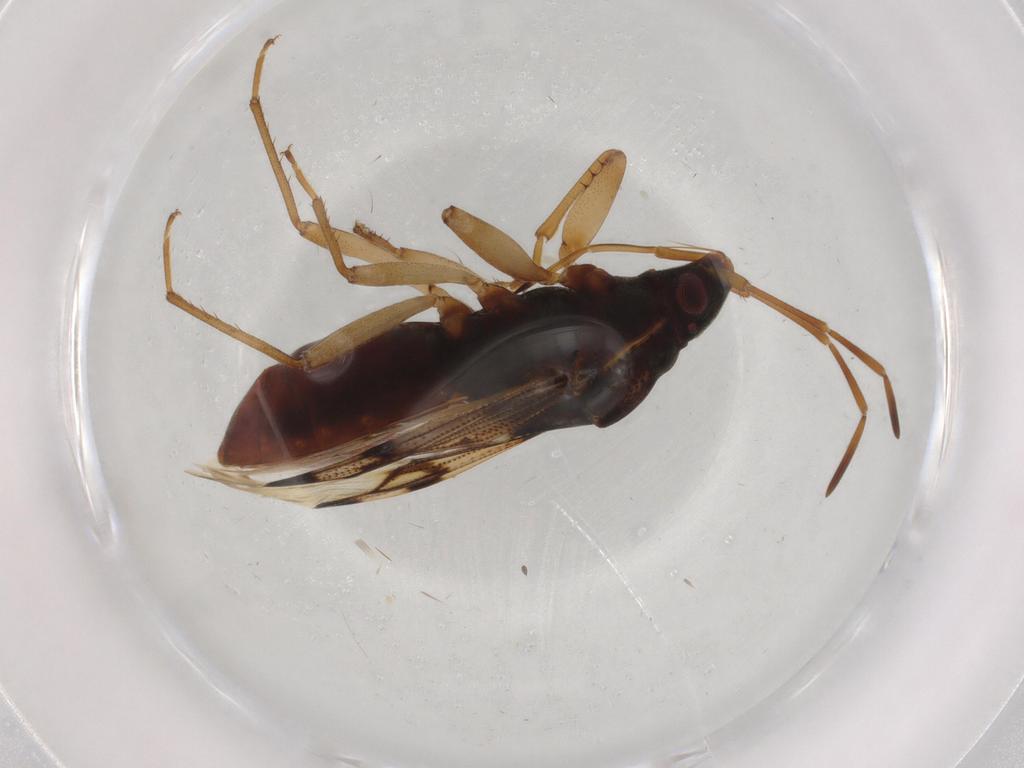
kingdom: Animalia
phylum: Arthropoda
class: Insecta
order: Hemiptera
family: Rhyparochromidae
